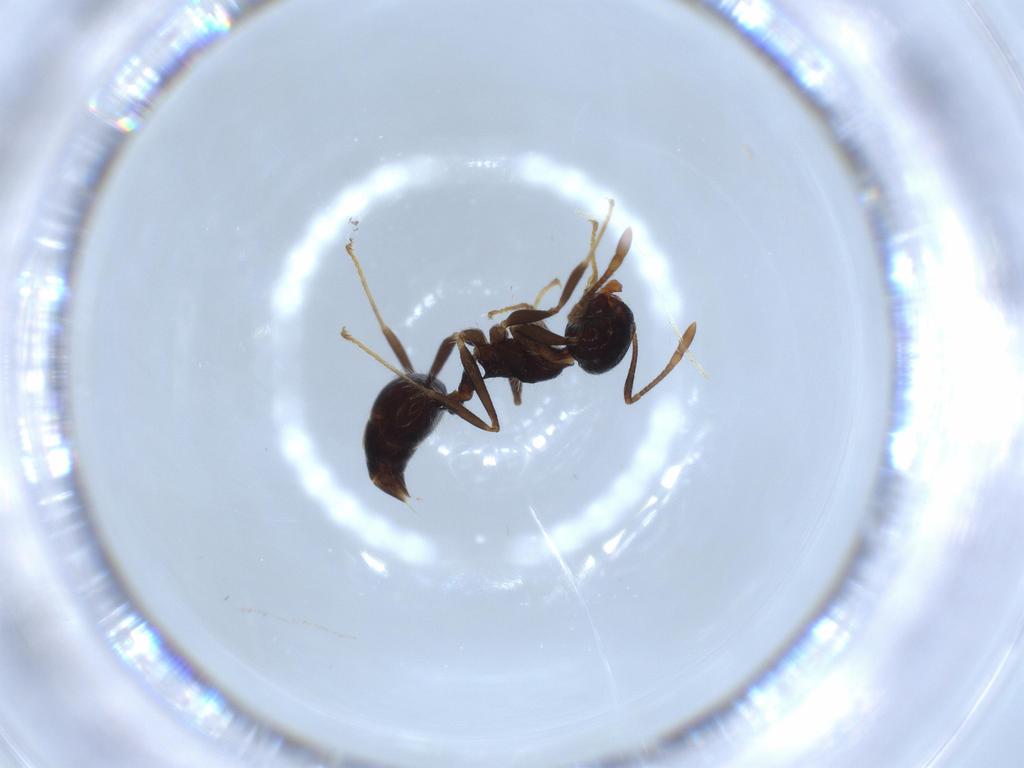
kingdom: Animalia
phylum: Arthropoda
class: Insecta
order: Hymenoptera
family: Formicidae
